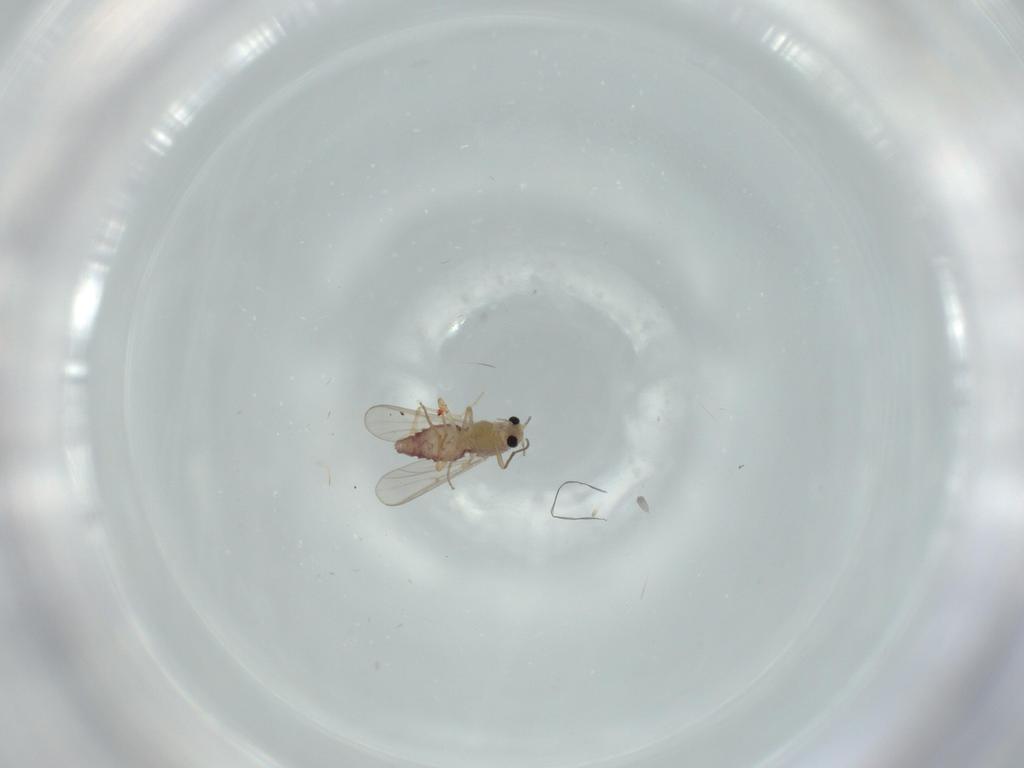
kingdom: Animalia
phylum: Arthropoda
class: Insecta
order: Diptera
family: Chironomidae
